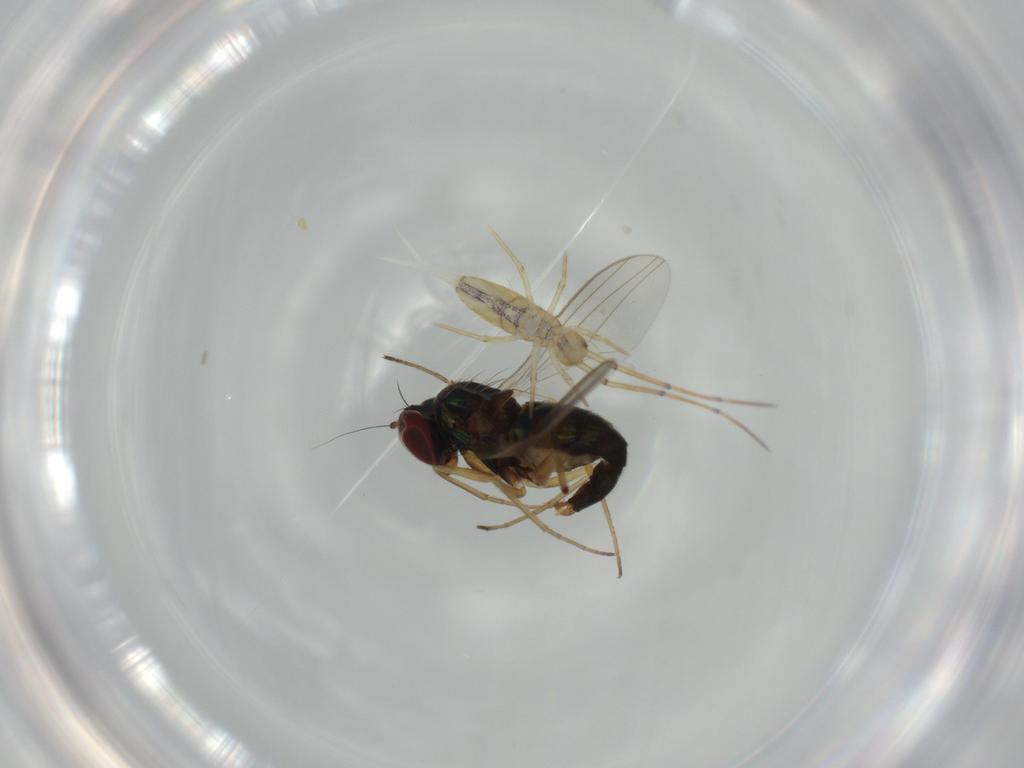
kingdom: Animalia
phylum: Arthropoda
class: Insecta
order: Diptera
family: Dolichopodidae
